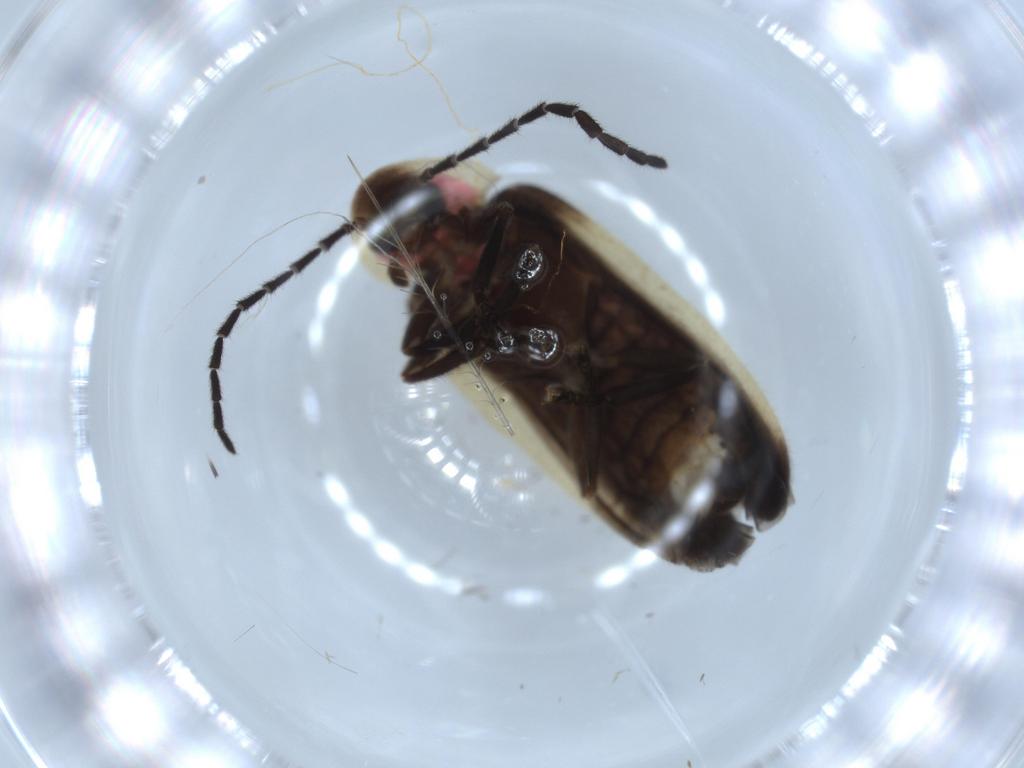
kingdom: Animalia
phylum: Arthropoda
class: Insecta
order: Coleoptera
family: Lampyridae
